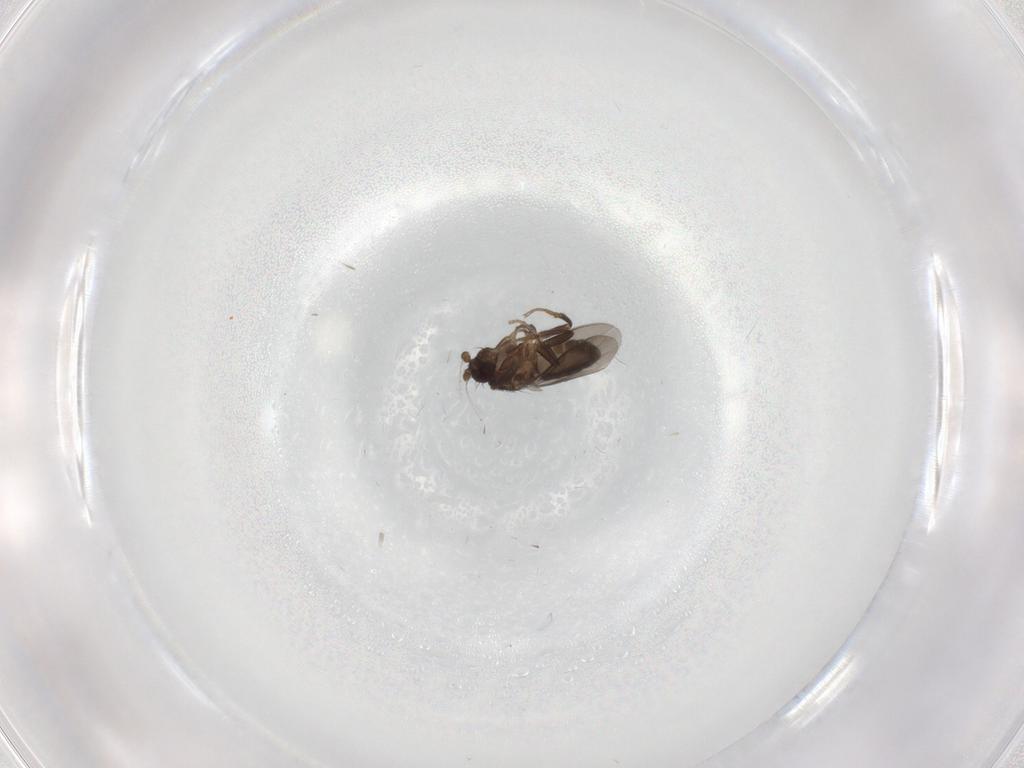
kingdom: Animalia
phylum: Arthropoda
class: Insecta
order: Diptera
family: Sphaeroceridae
